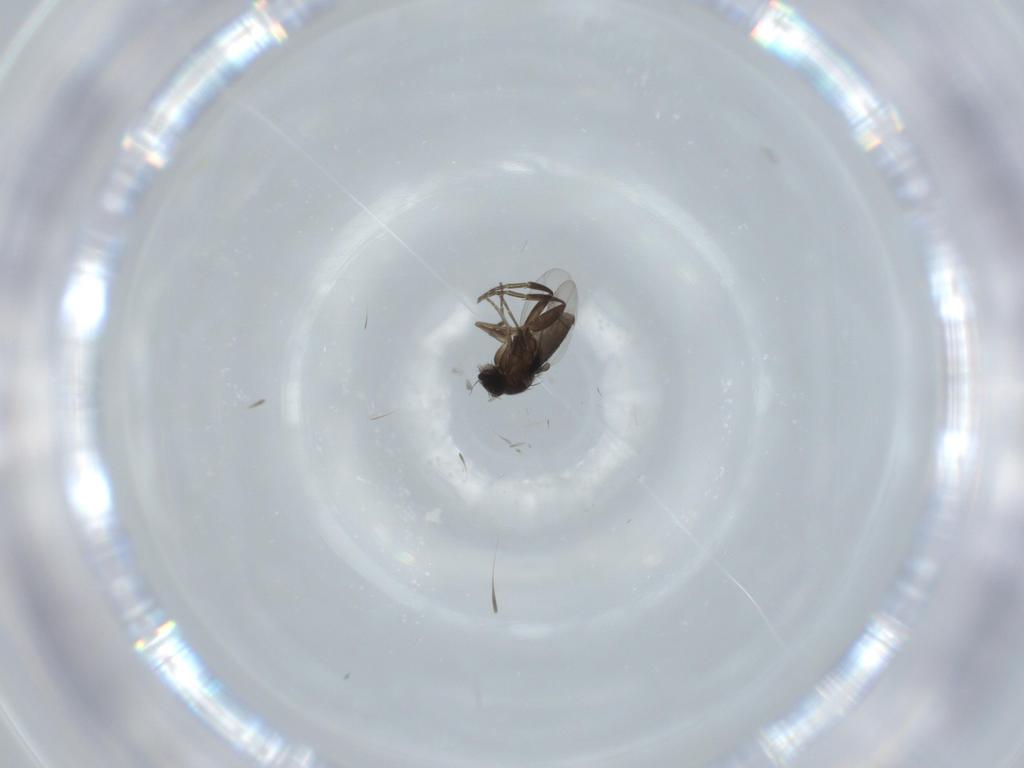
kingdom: Animalia
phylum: Arthropoda
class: Insecta
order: Diptera
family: Phoridae
